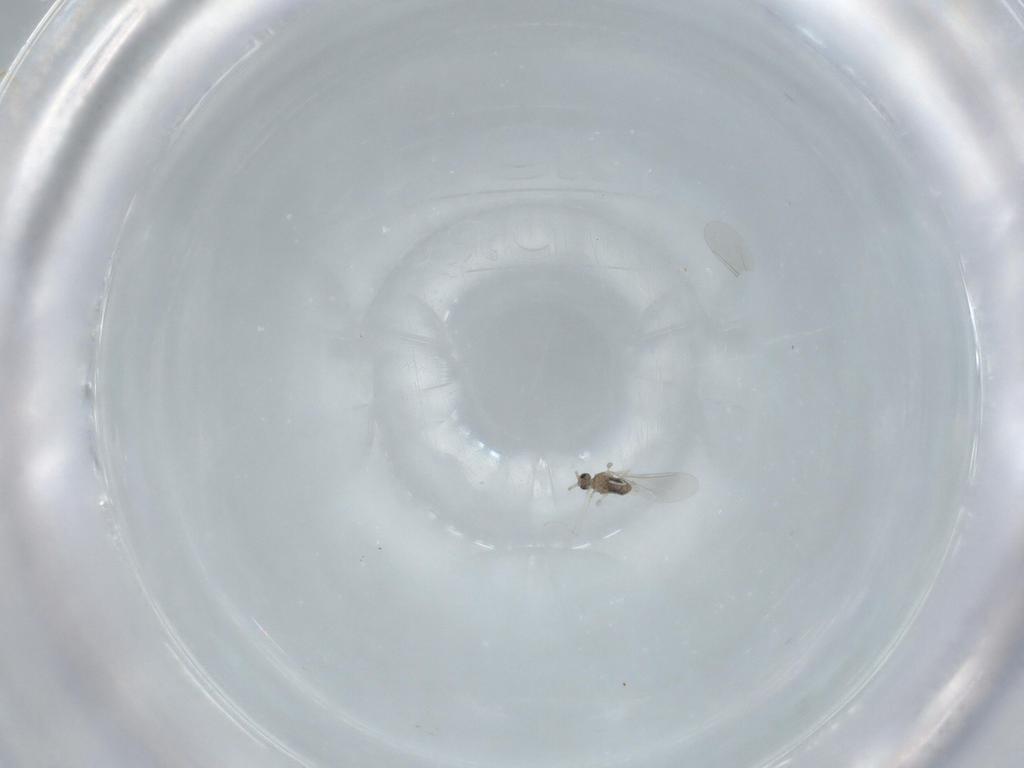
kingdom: Animalia
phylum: Arthropoda
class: Insecta
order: Diptera
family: Cecidomyiidae
